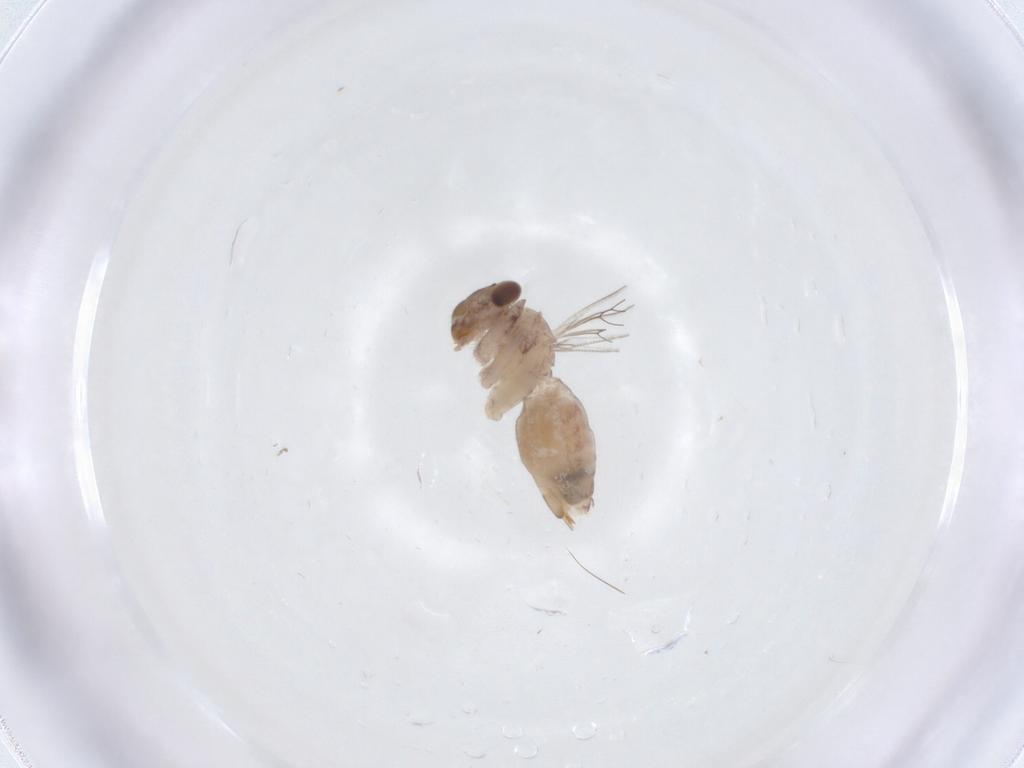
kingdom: Animalia
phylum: Arthropoda
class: Insecta
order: Psocodea
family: Lepidopsocidae
